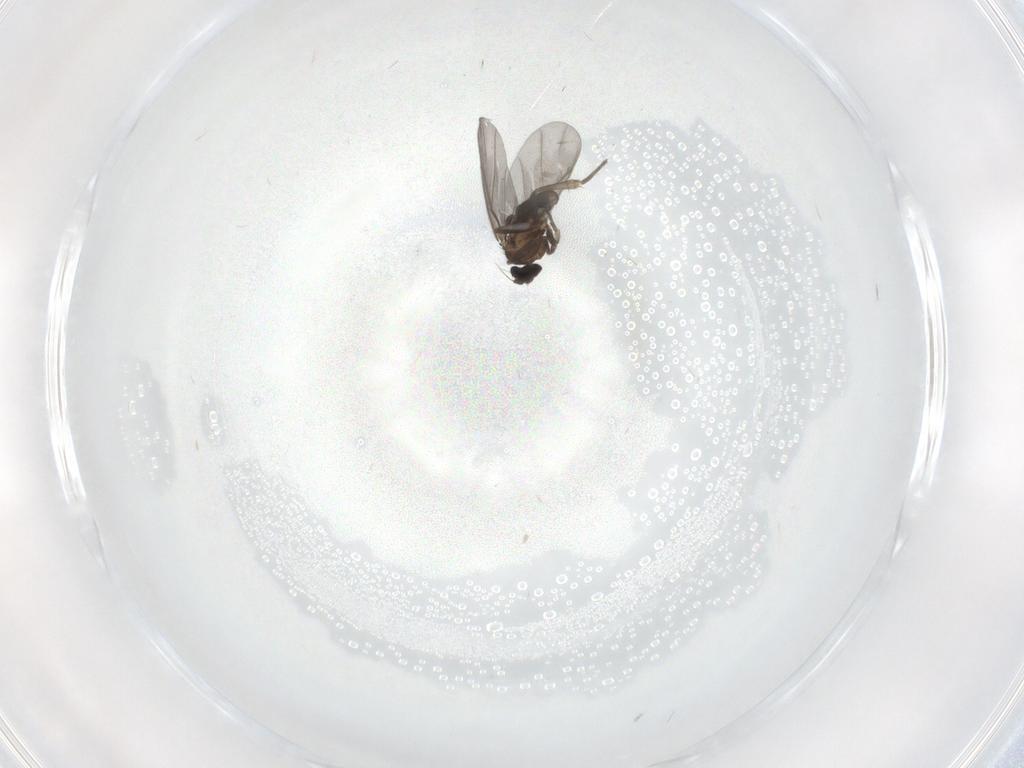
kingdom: Animalia
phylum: Arthropoda
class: Insecta
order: Diptera
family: Phoridae
